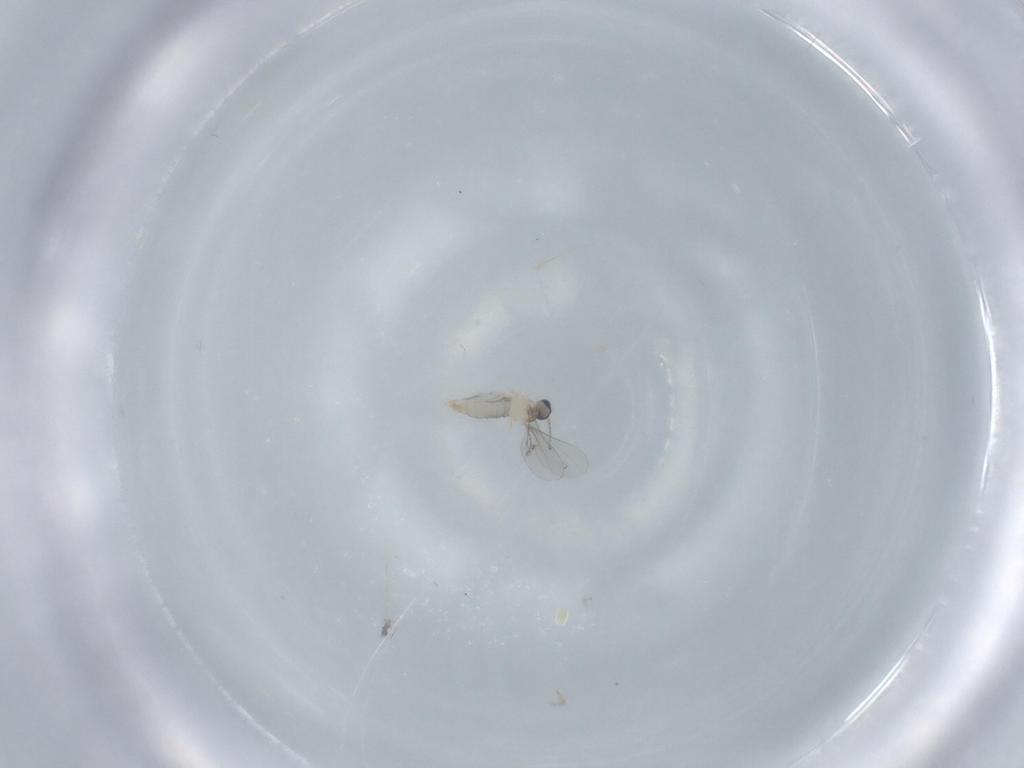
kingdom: Animalia
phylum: Arthropoda
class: Insecta
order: Diptera
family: Cecidomyiidae
